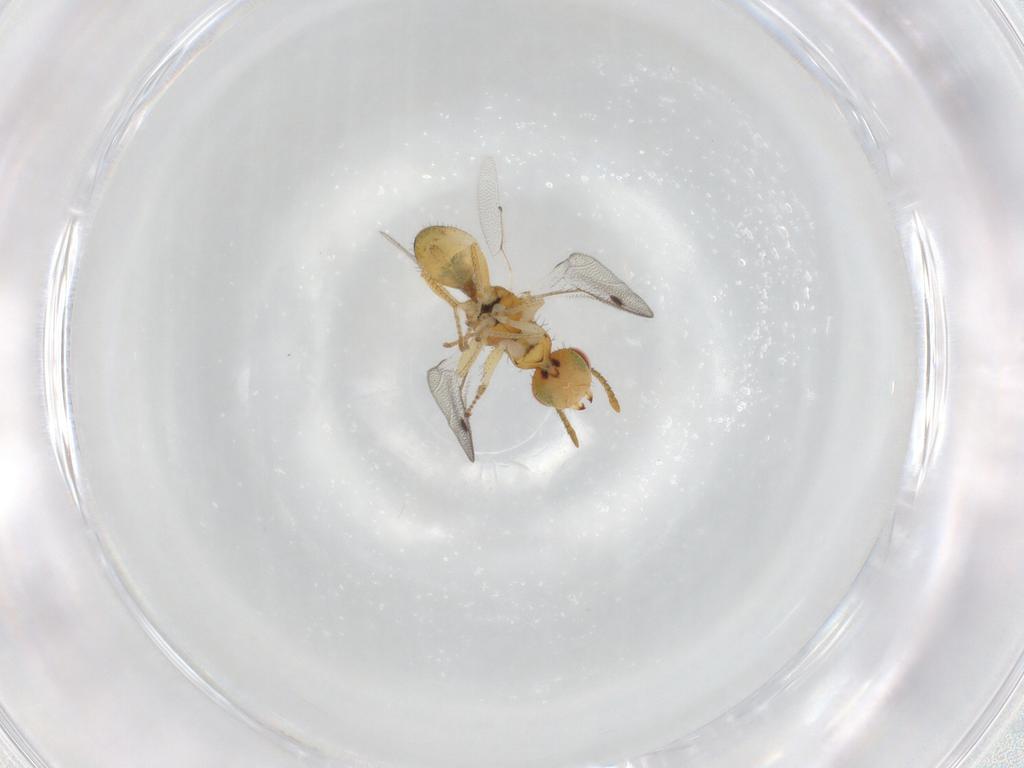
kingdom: Animalia
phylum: Arthropoda
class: Insecta
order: Hymenoptera
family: Megastigmidae
